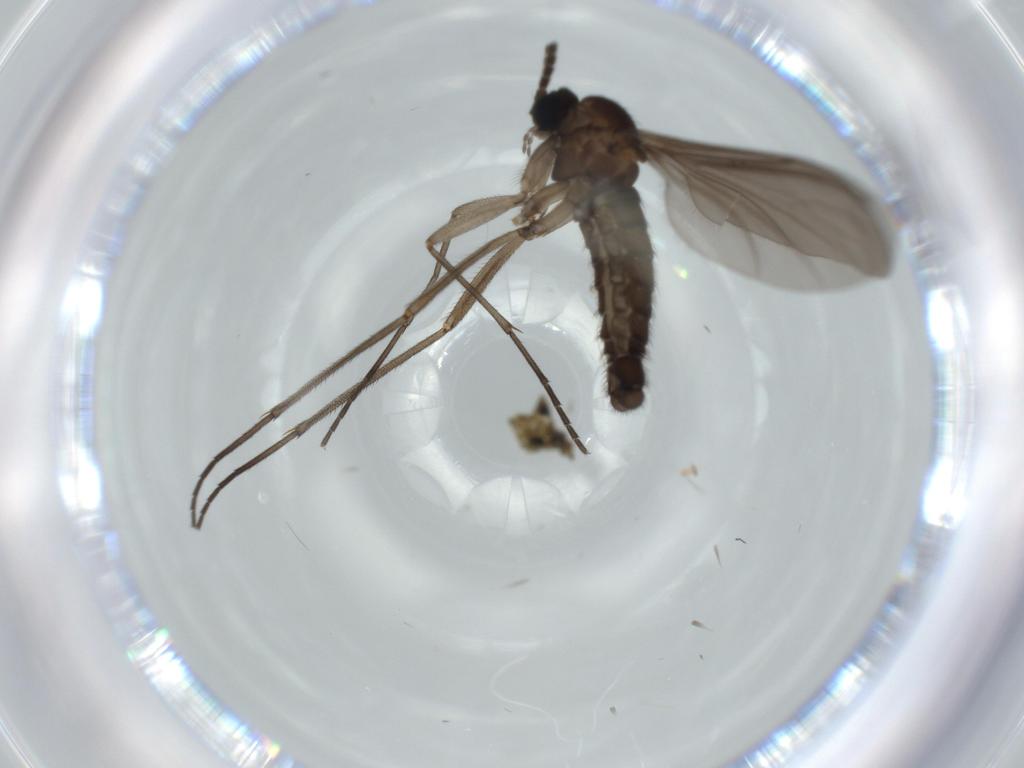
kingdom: Animalia
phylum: Arthropoda
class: Insecta
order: Diptera
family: Sciaridae
